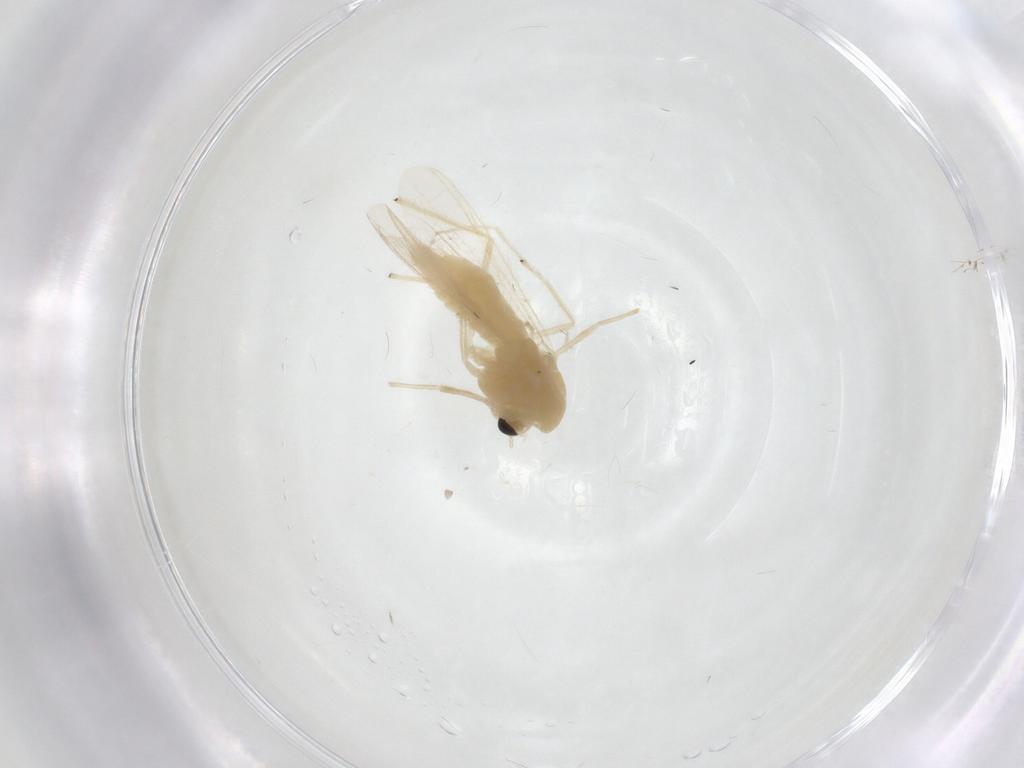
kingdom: Animalia
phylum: Arthropoda
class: Insecta
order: Diptera
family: Chironomidae
